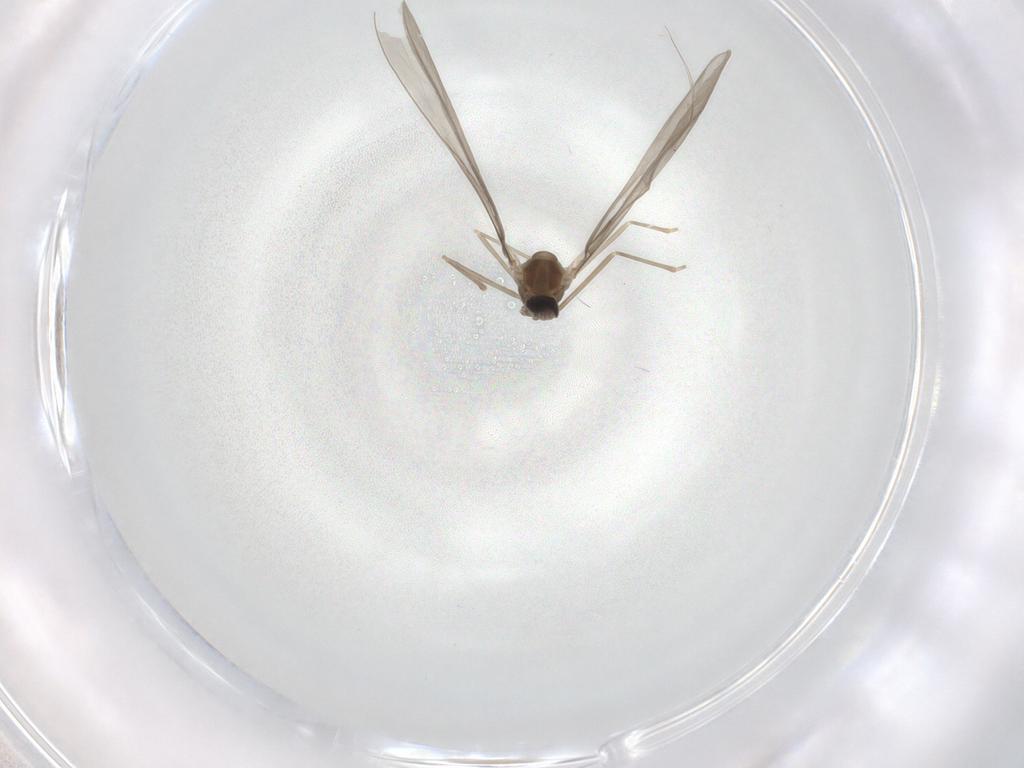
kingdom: Animalia
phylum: Arthropoda
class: Insecta
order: Diptera
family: Cecidomyiidae
